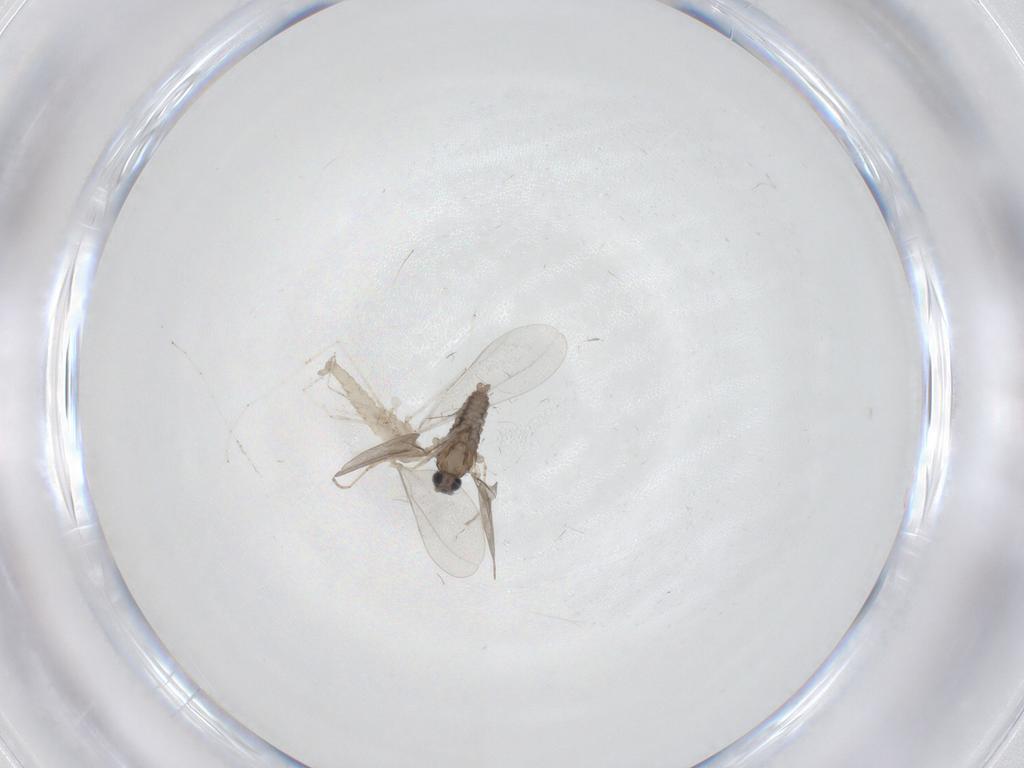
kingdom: Animalia
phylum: Arthropoda
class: Insecta
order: Diptera
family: Cecidomyiidae
